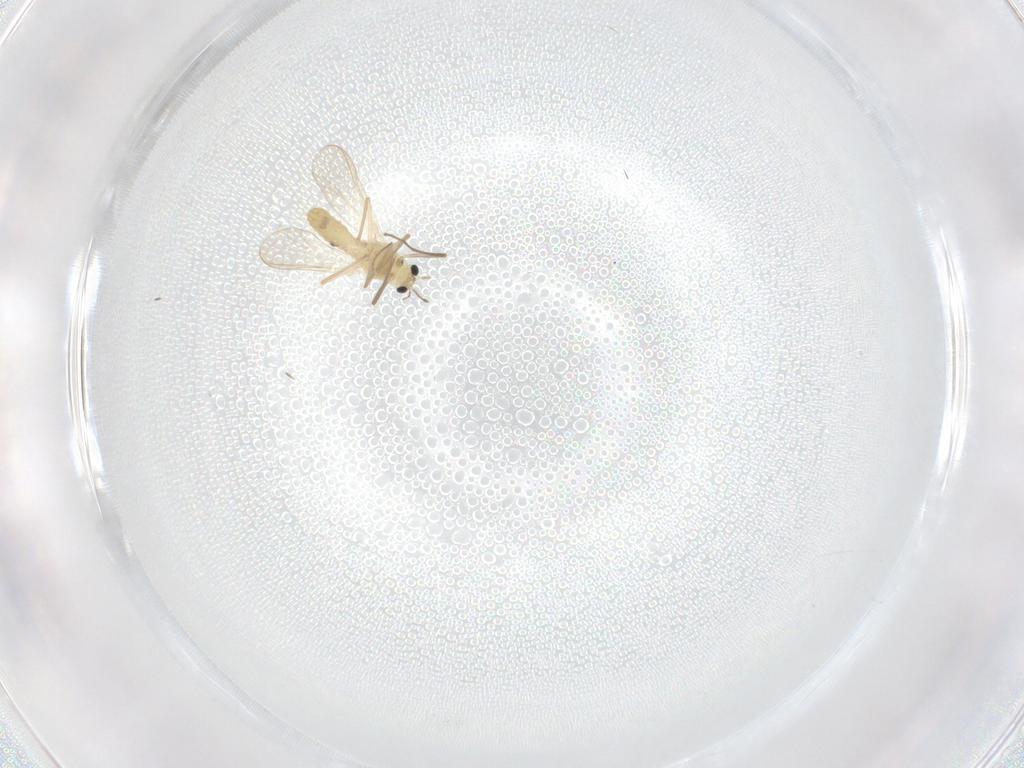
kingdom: Animalia
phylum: Arthropoda
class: Insecta
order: Diptera
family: Chironomidae
